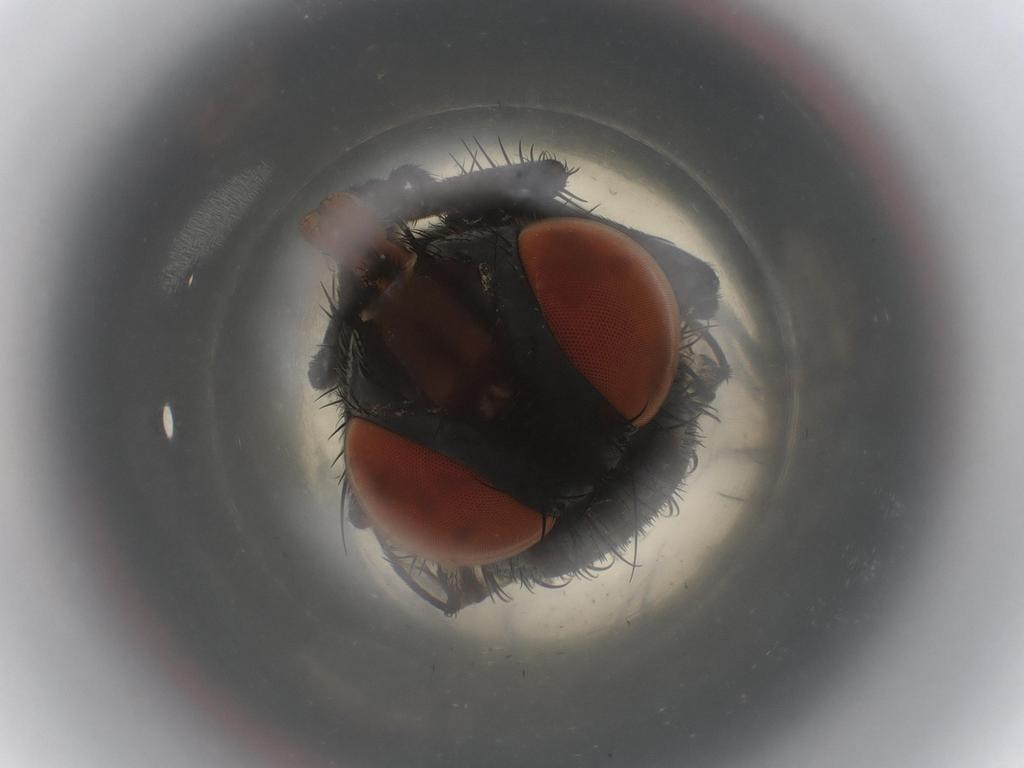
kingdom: Animalia
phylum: Arthropoda
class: Insecta
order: Diptera
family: Sarcophagidae
